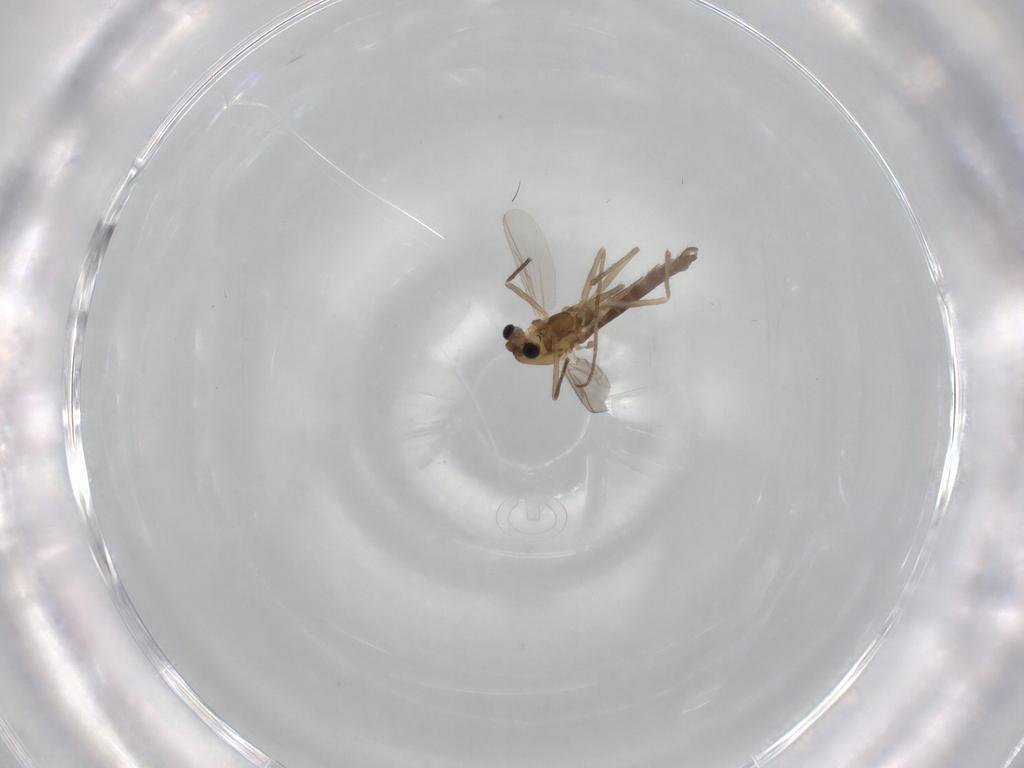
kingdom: Animalia
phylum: Arthropoda
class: Insecta
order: Diptera
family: Chironomidae
